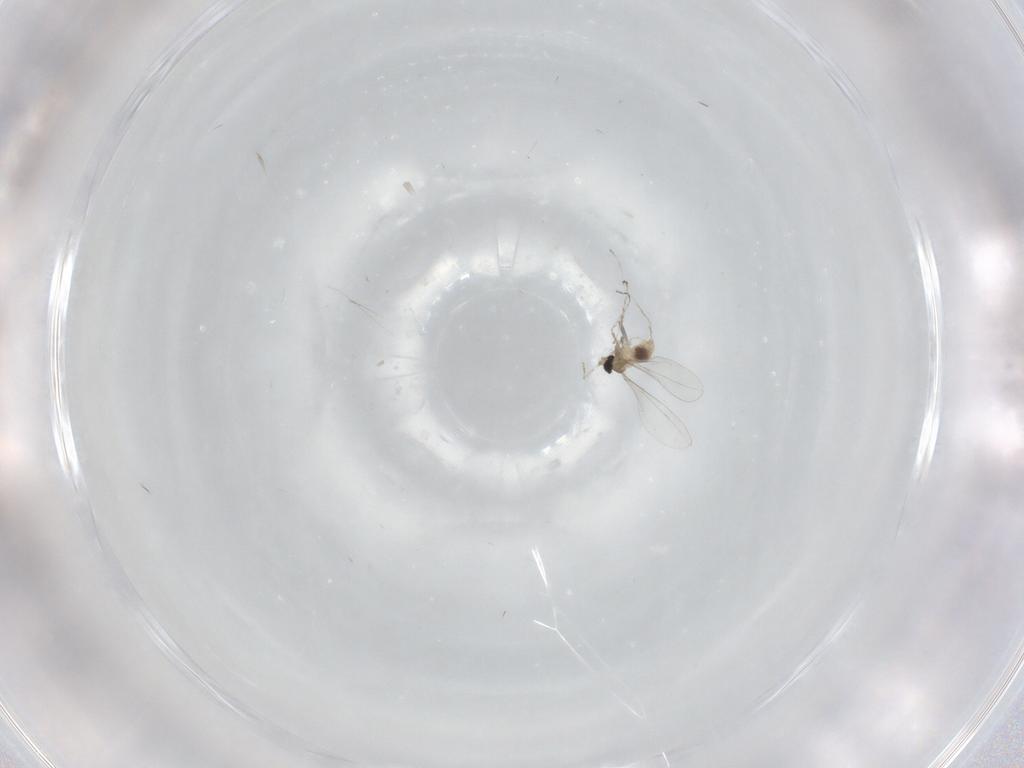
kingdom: Animalia
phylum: Arthropoda
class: Insecta
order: Diptera
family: Cecidomyiidae
